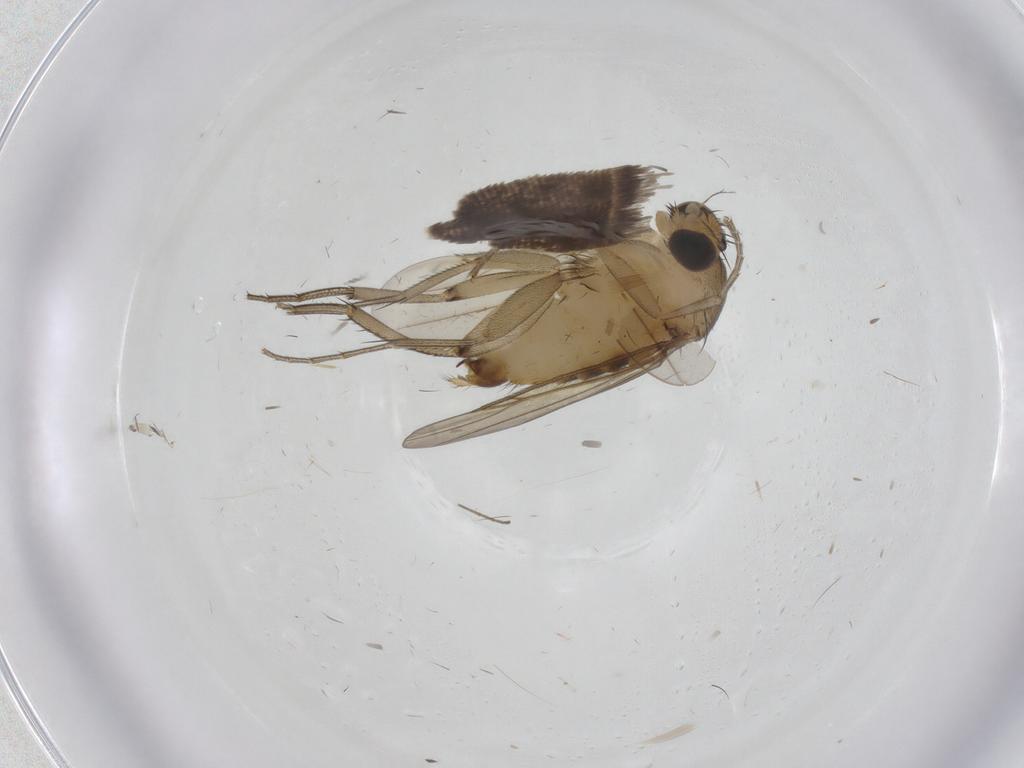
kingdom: Animalia
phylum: Arthropoda
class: Insecta
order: Diptera
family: Phoridae
